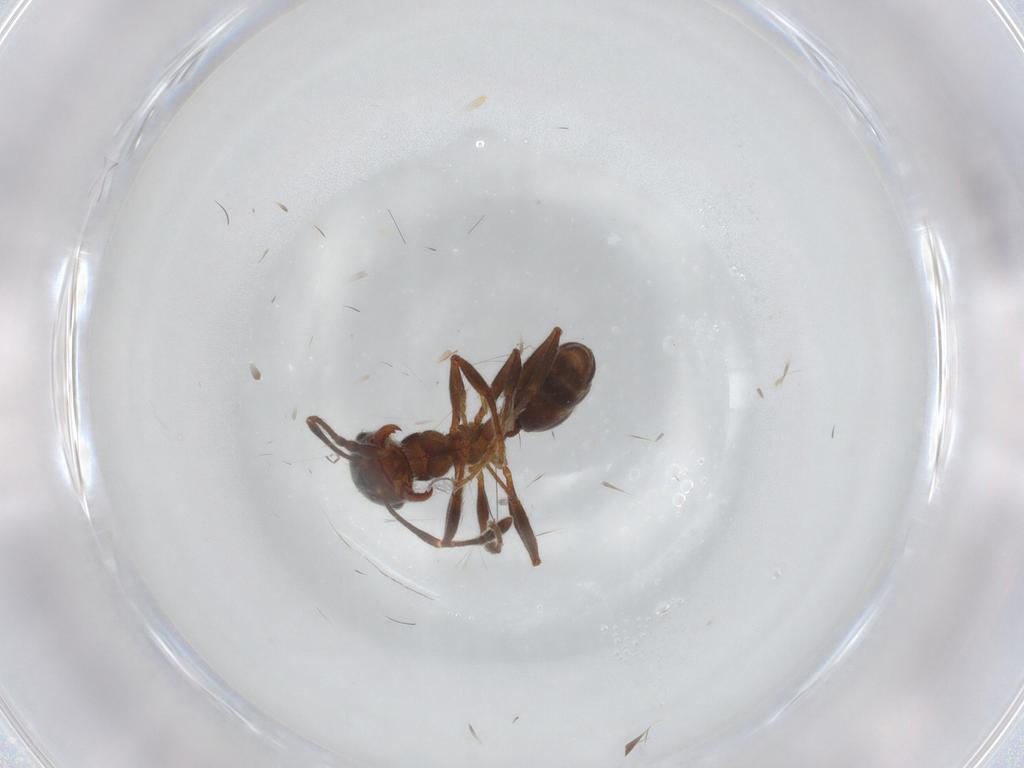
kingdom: Animalia
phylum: Arthropoda
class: Insecta
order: Hymenoptera
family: Formicidae
